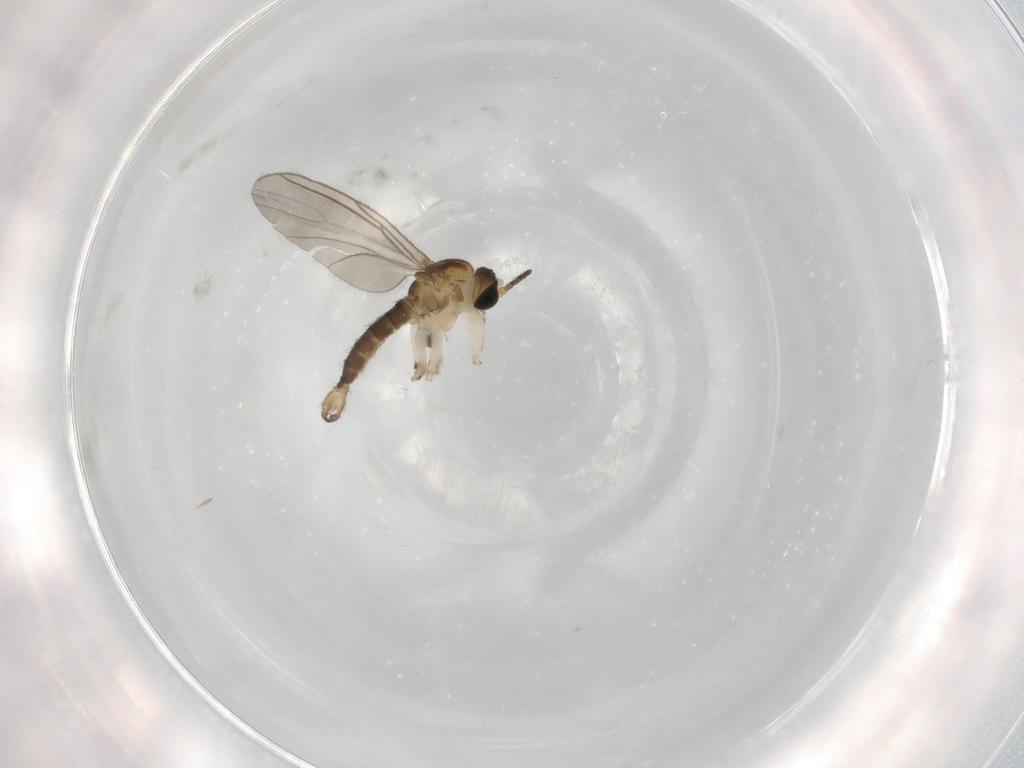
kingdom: Animalia
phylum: Arthropoda
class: Insecta
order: Diptera
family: Sciaridae
